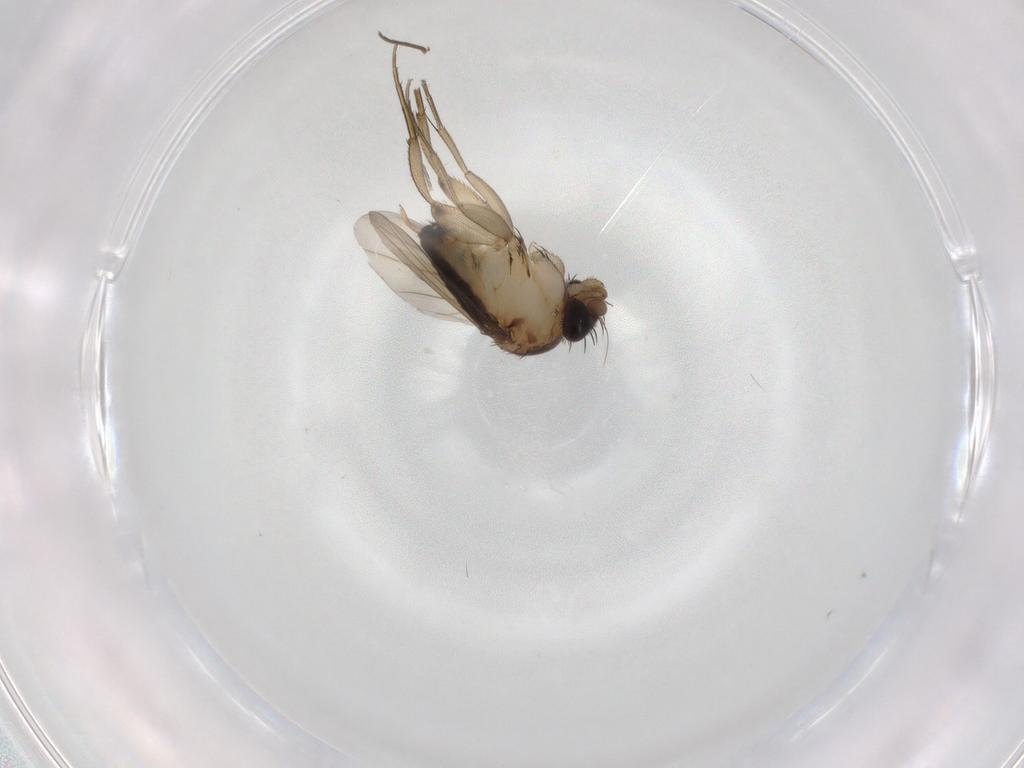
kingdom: Animalia
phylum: Arthropoda
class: Insecta
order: Diptera
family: Phoridae
